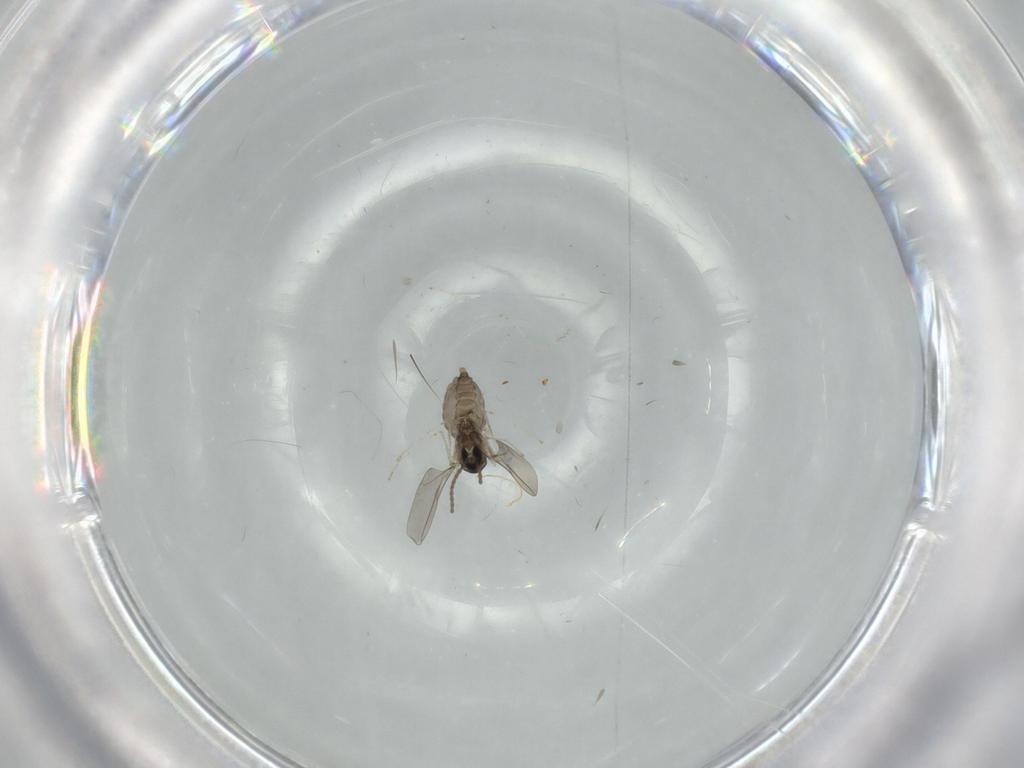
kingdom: Animalia
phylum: Arthropoda
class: Insecta
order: Diptera
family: Cecidomyiidae
